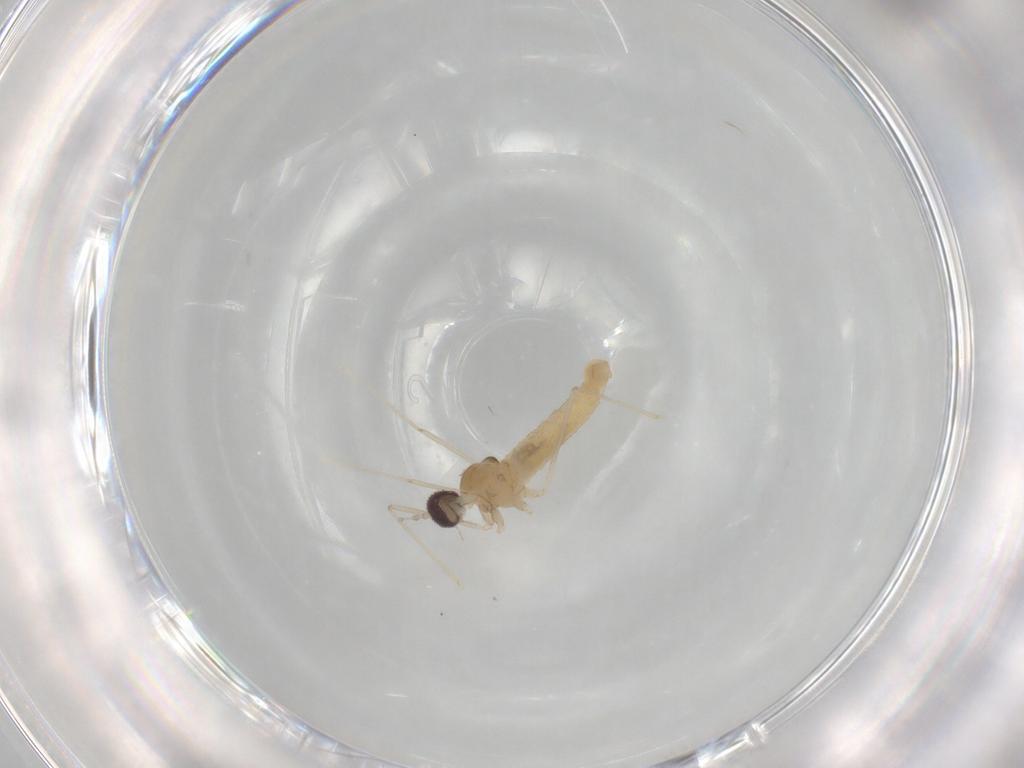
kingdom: Animalia
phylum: Arthropoda
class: Insecta
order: Diptera
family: Cecidomyiidae
